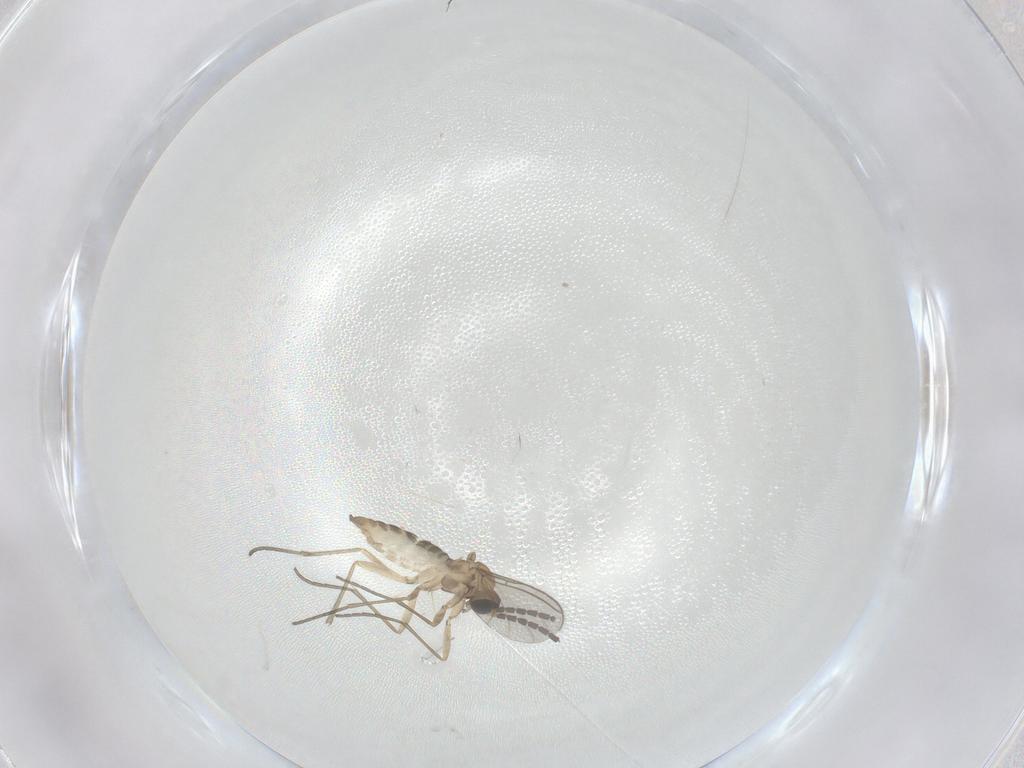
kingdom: Animalia
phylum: Arthropoda
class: Insecta
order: Diptera
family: Sciaridae
